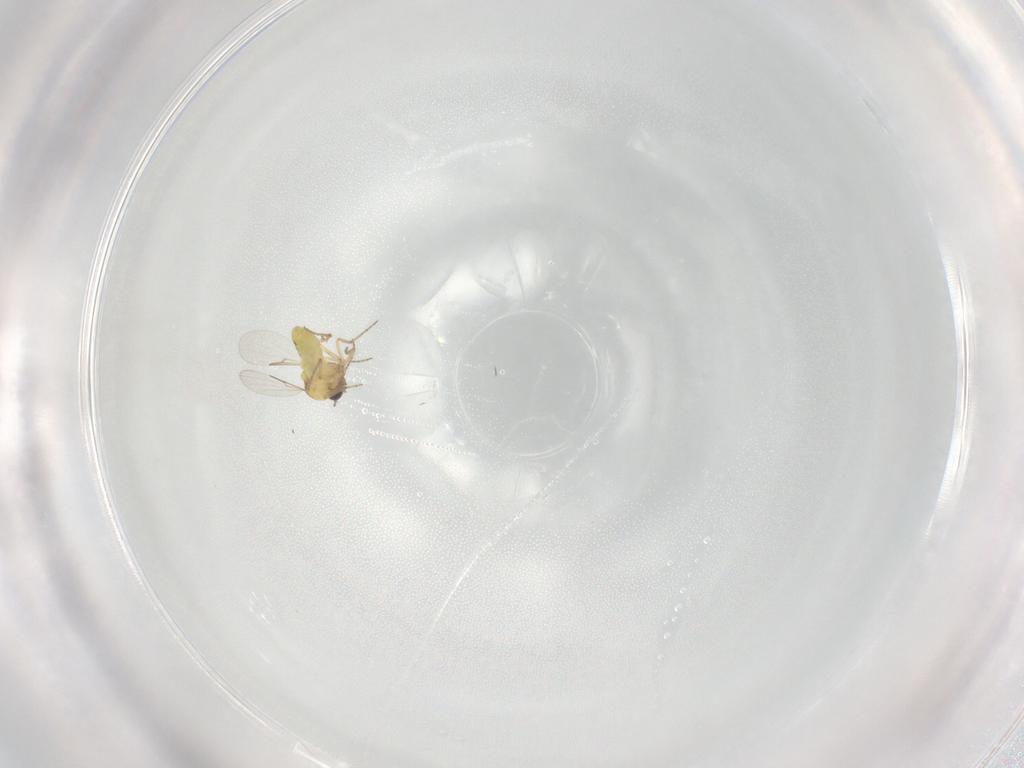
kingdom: Animalia
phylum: Arthropoda
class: Insecta
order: Diptera
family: Ceratopogonidae
